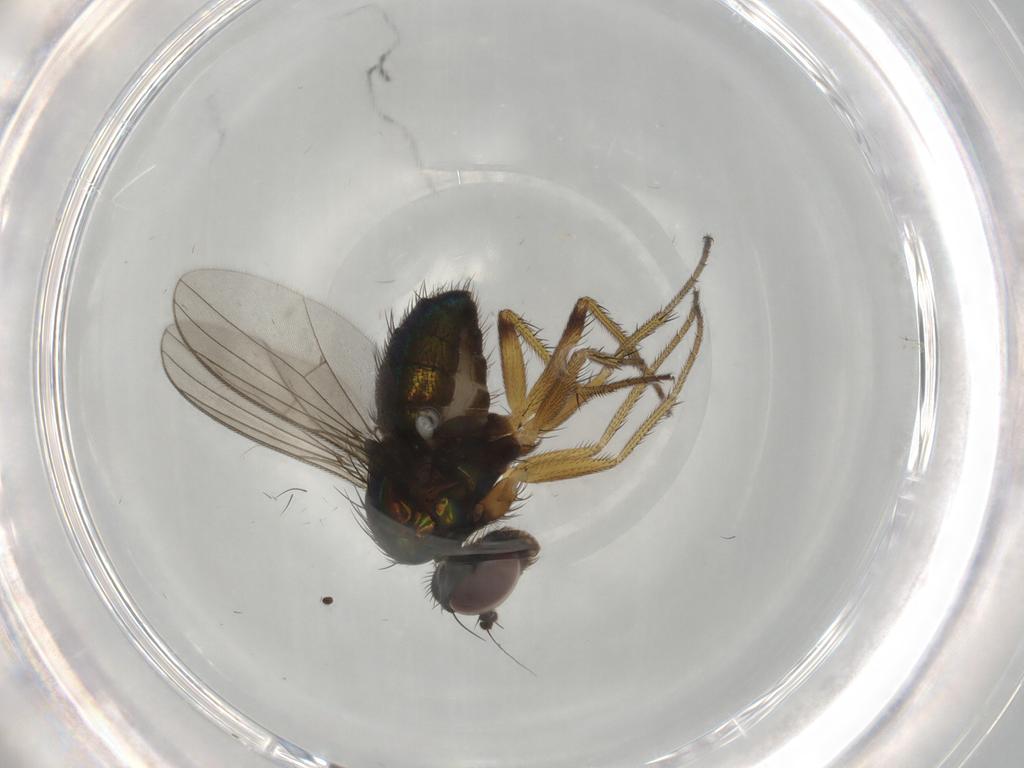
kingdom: Animalia
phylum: Arthropoda
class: Insecta
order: Diptera
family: Dolichopodidae
